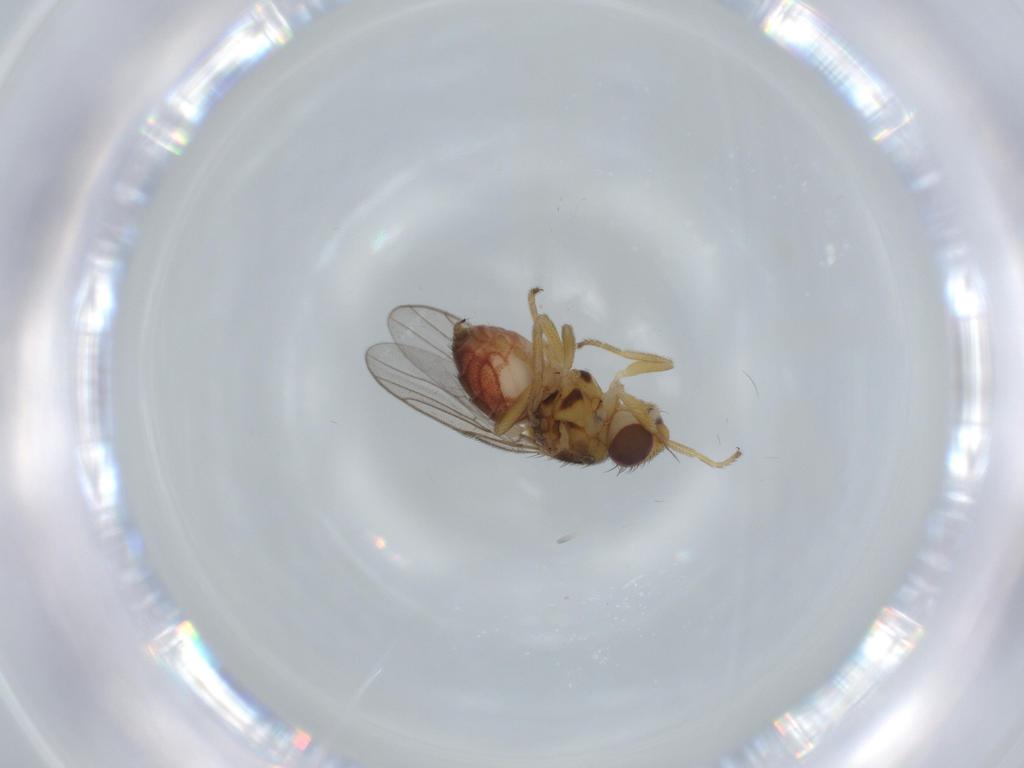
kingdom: Animalia
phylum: Arthropoda
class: Insecta
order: Diptera
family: Chloropidae
